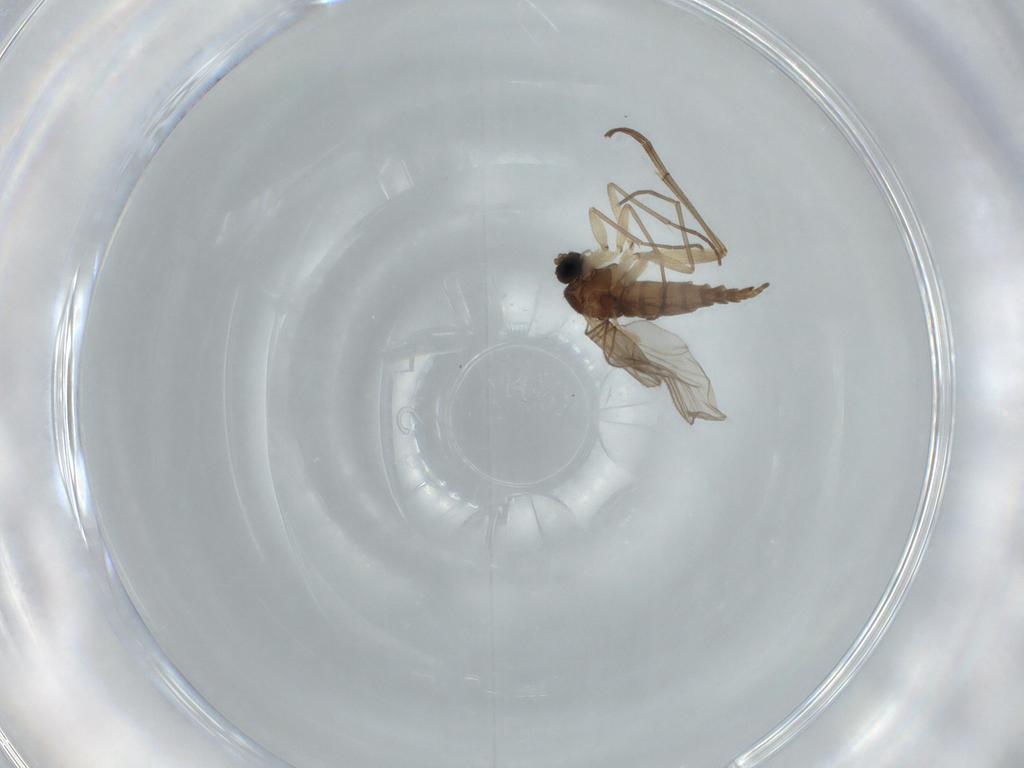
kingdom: Animalia
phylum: Arthropoda
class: Insecta
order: Diptera
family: Sciaridae
